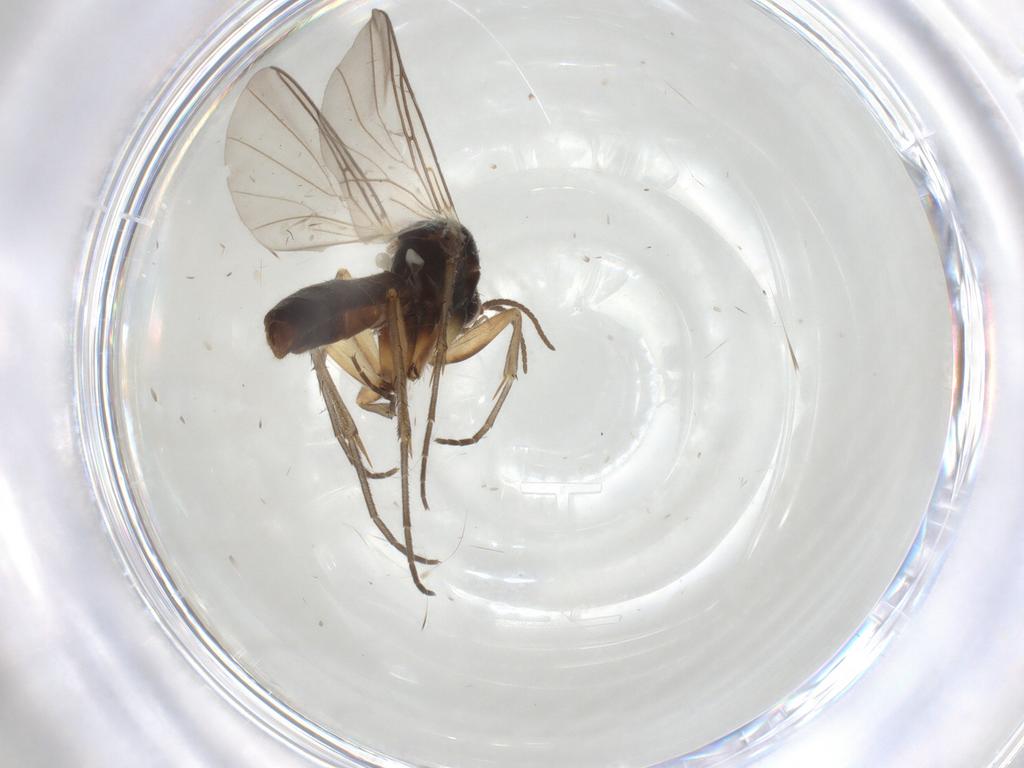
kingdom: Animalia
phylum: Arthropoda
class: Insecta
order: Diptera
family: Mycetophilidae
